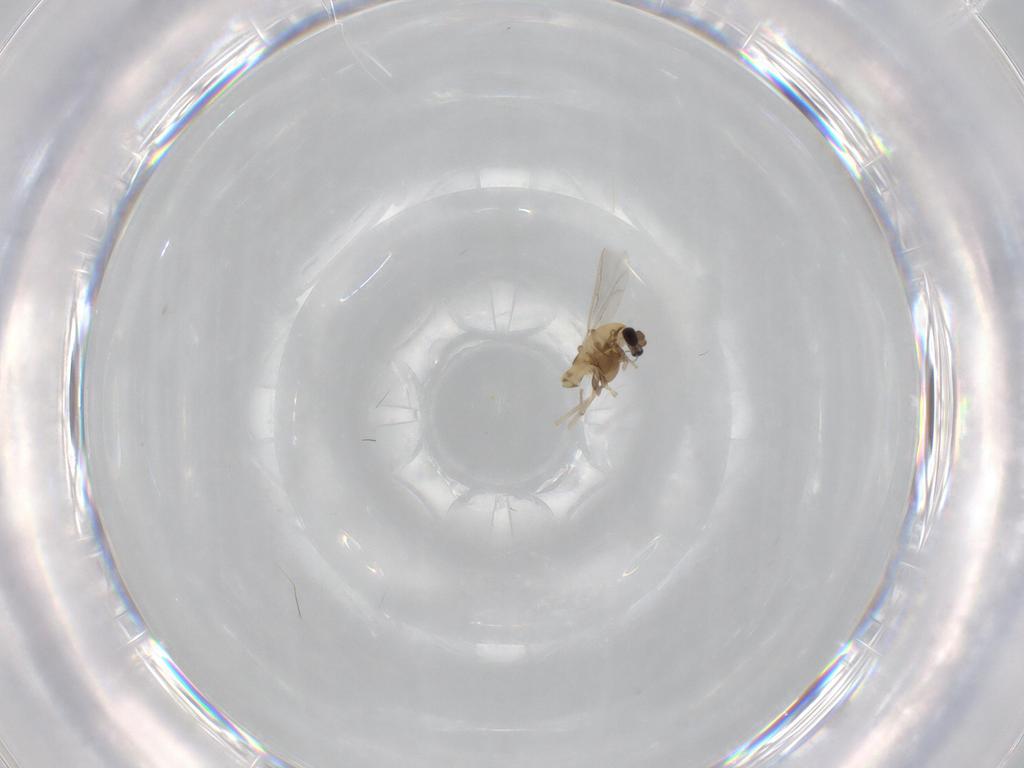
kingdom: Animalia
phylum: Arthropoda
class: Insecta
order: Diptera
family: Chironomidae
